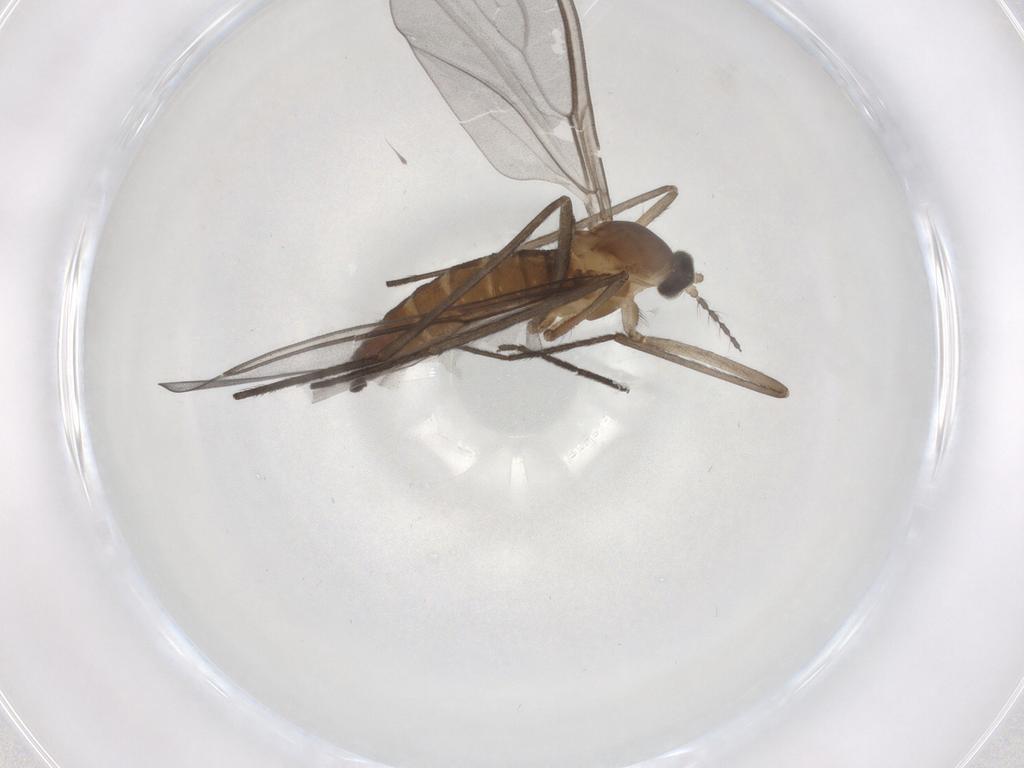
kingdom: Animalia
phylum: Arthropoda
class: Insecta
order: Diptera
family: Cecidomyiidae
